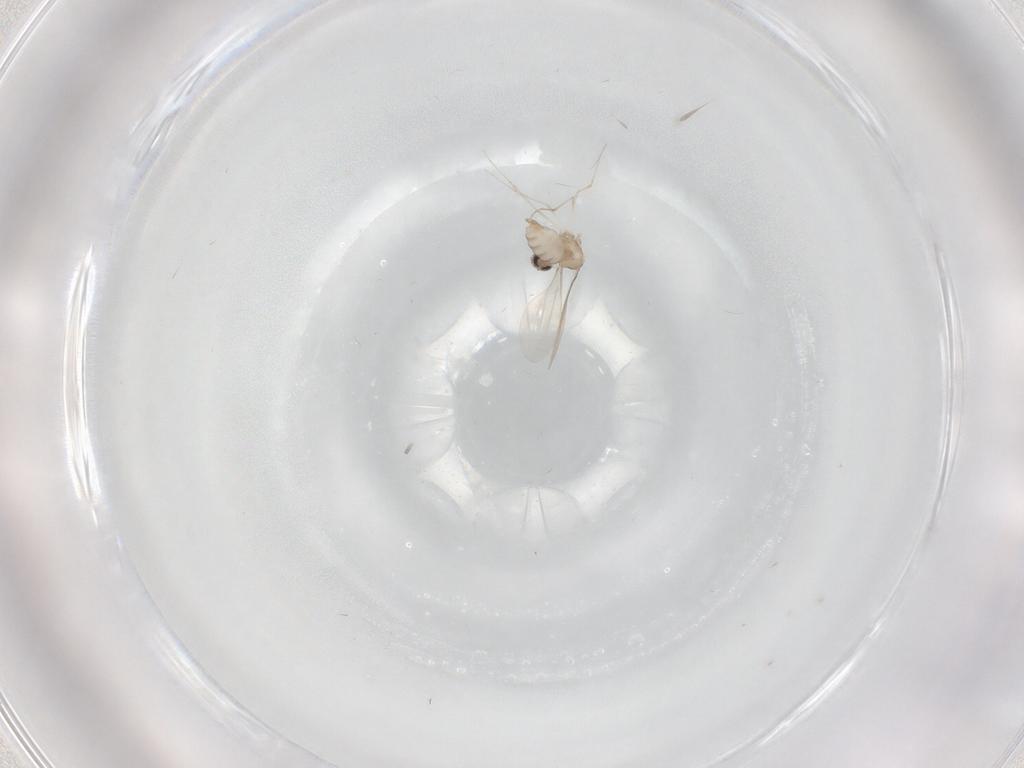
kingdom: Animalia
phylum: Arthropoda
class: Insecta
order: Diptera
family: Cecidomyiidae
